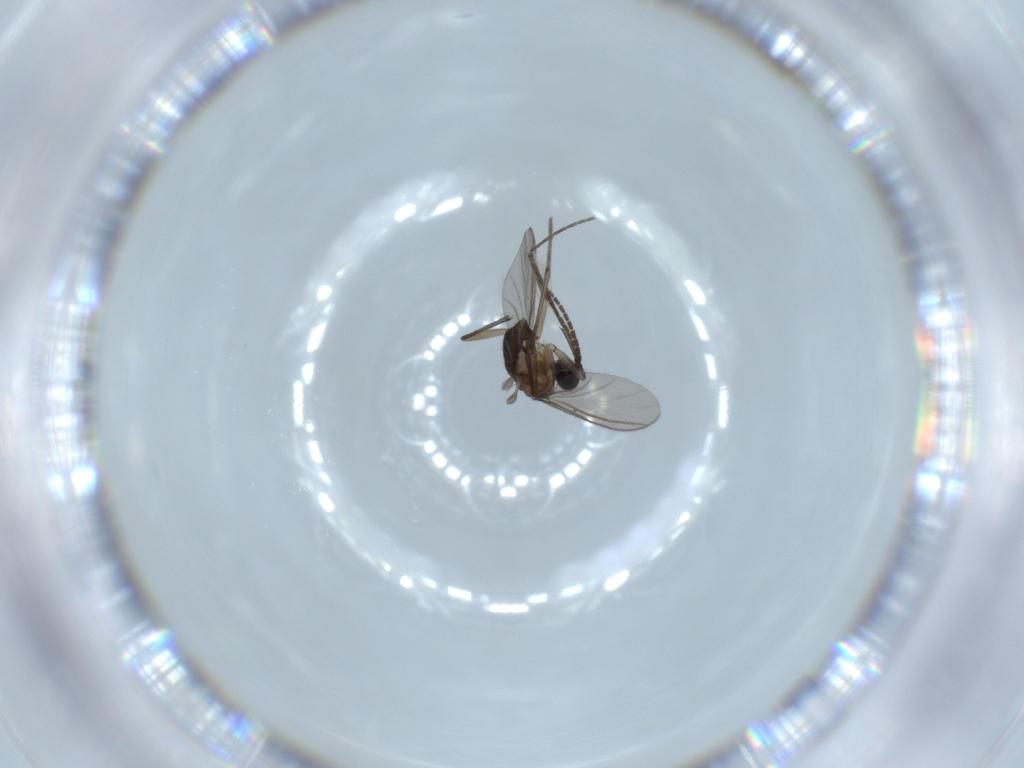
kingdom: Animalia
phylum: Arthropoda
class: Insecta
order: Diptera
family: Sciaridae
